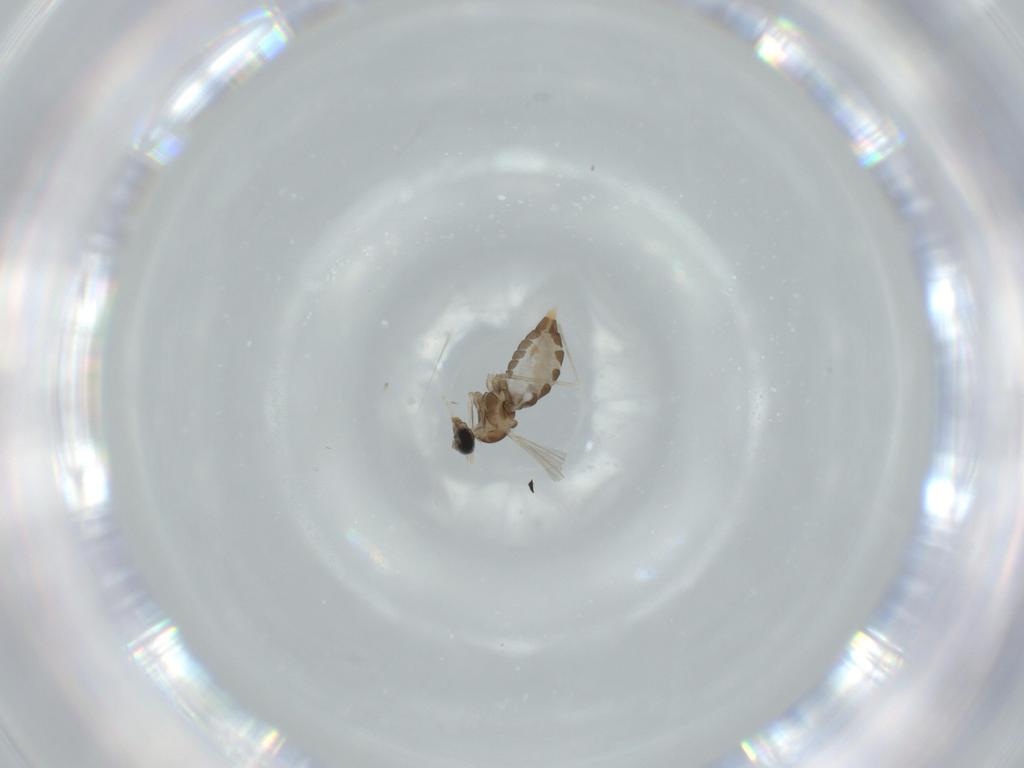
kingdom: Animalia
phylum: Arthropoda
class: Insecta
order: Diptera
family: Cecidomyiidae
